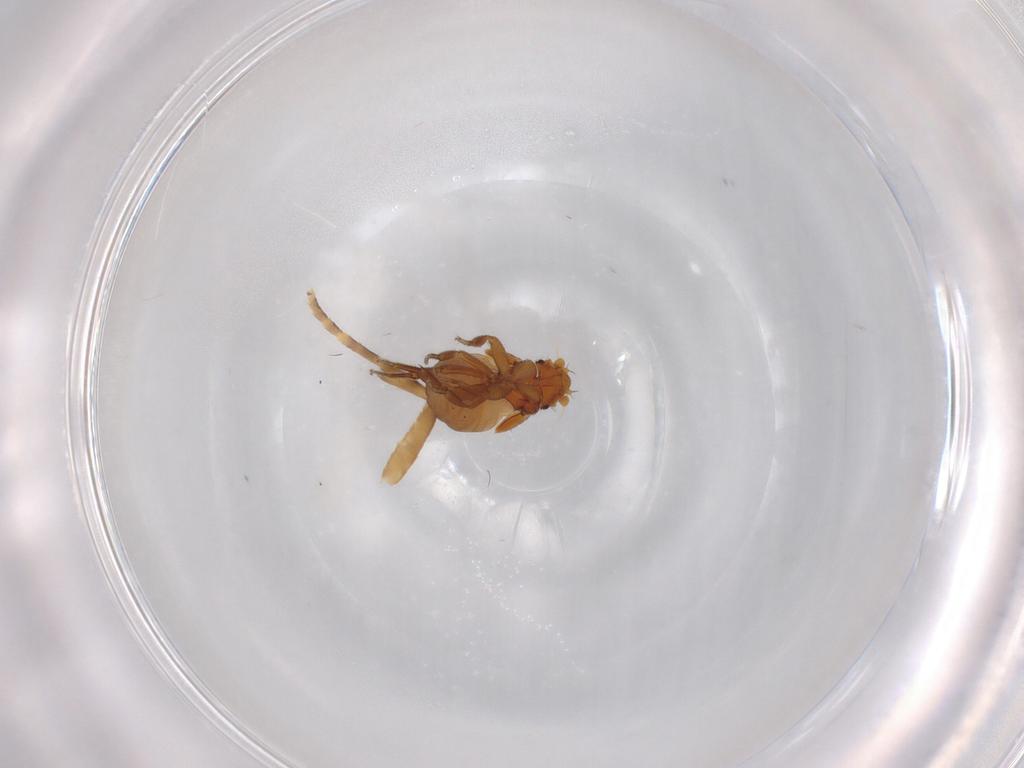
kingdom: Animalia
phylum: Arthropoda
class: Insecta
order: Diptera
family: Phoridae
